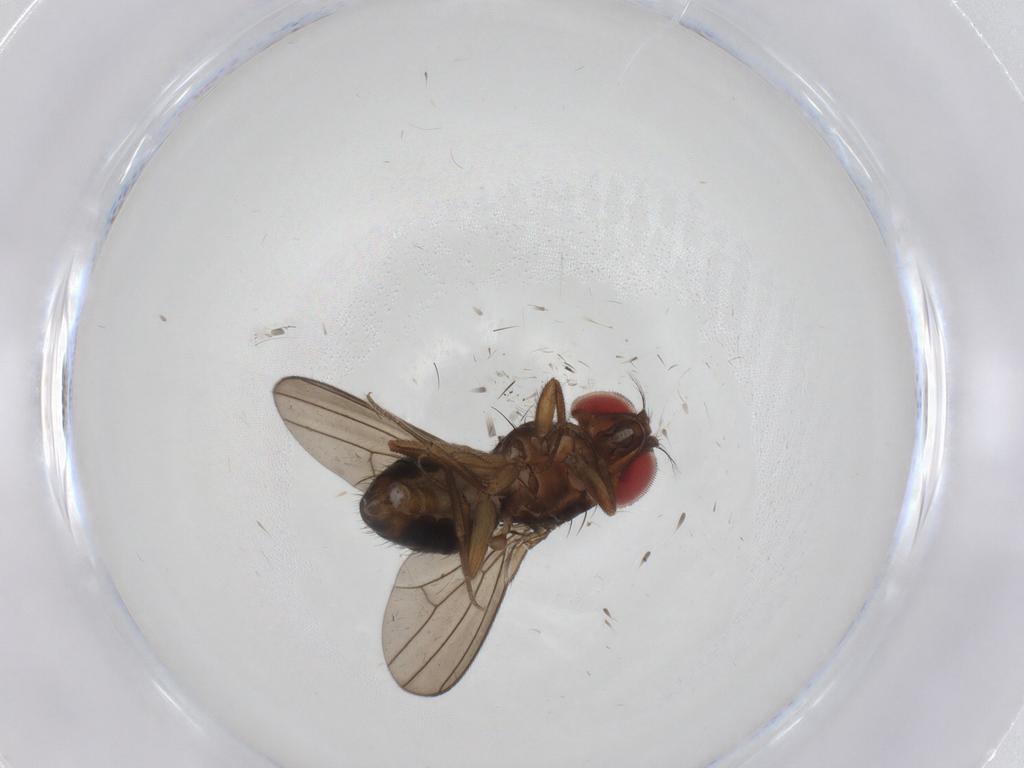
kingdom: Animalia
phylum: Arthropoda
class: Insecta
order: Diptera
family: Drosophilidae
